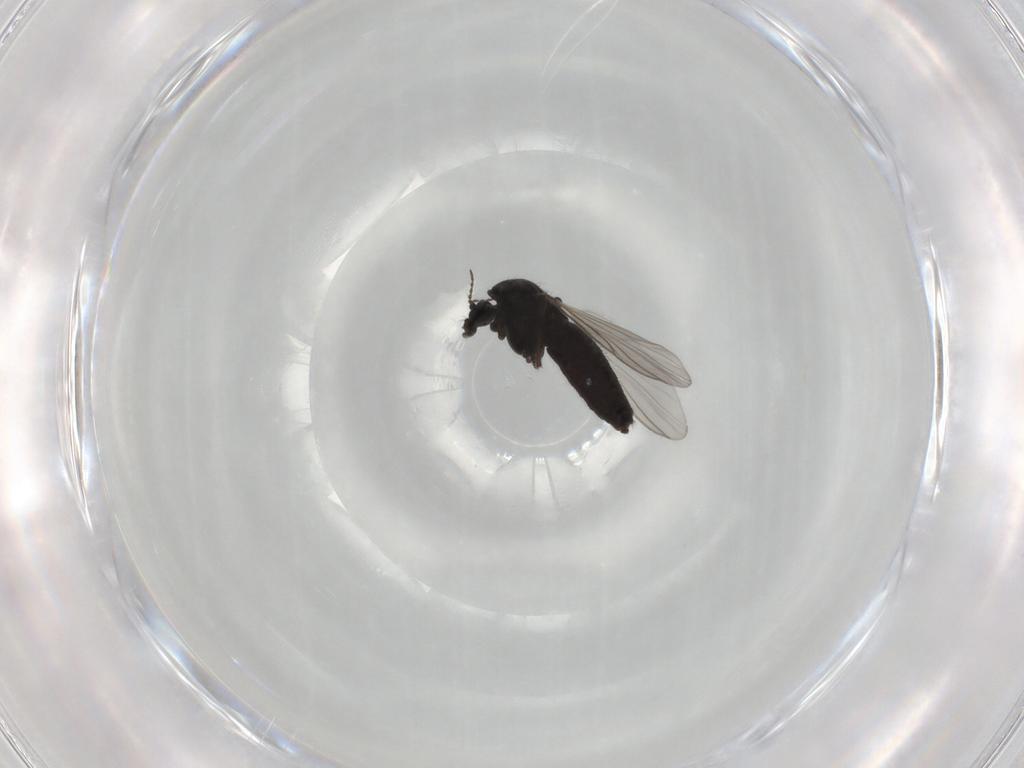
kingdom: Animalia
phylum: Arthropoda
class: Insecta
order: Diptera
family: Chironomidae
